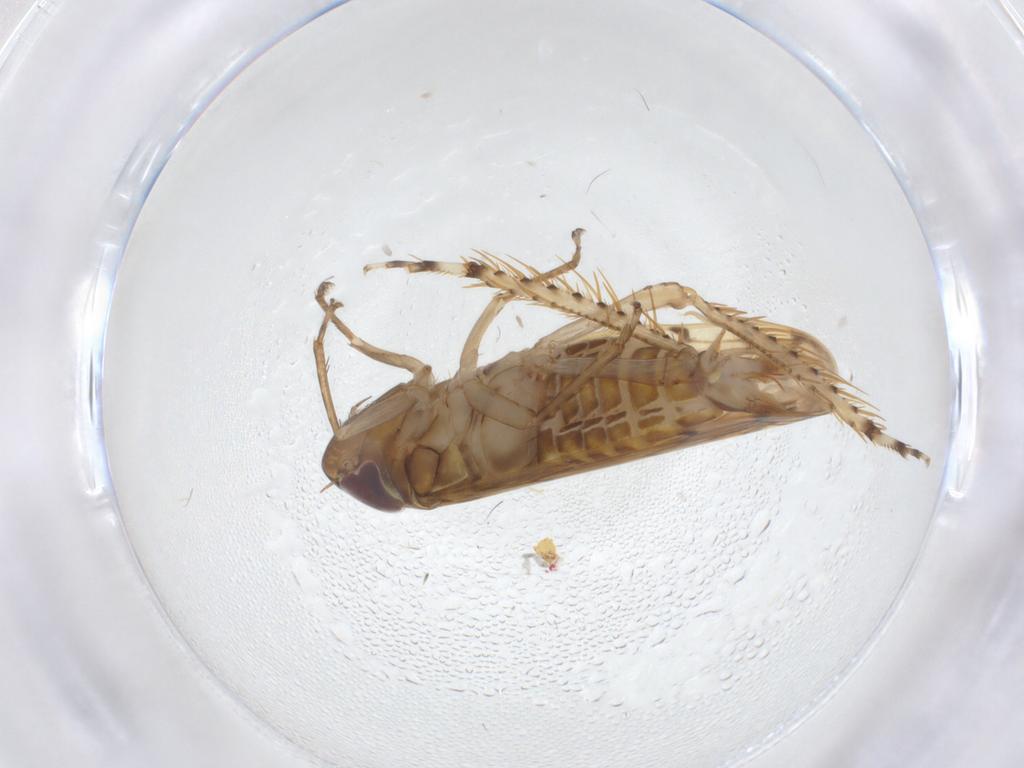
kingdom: Animalia
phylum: Arthropoda
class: Insecta
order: Hemiptera
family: Cicadellidae
